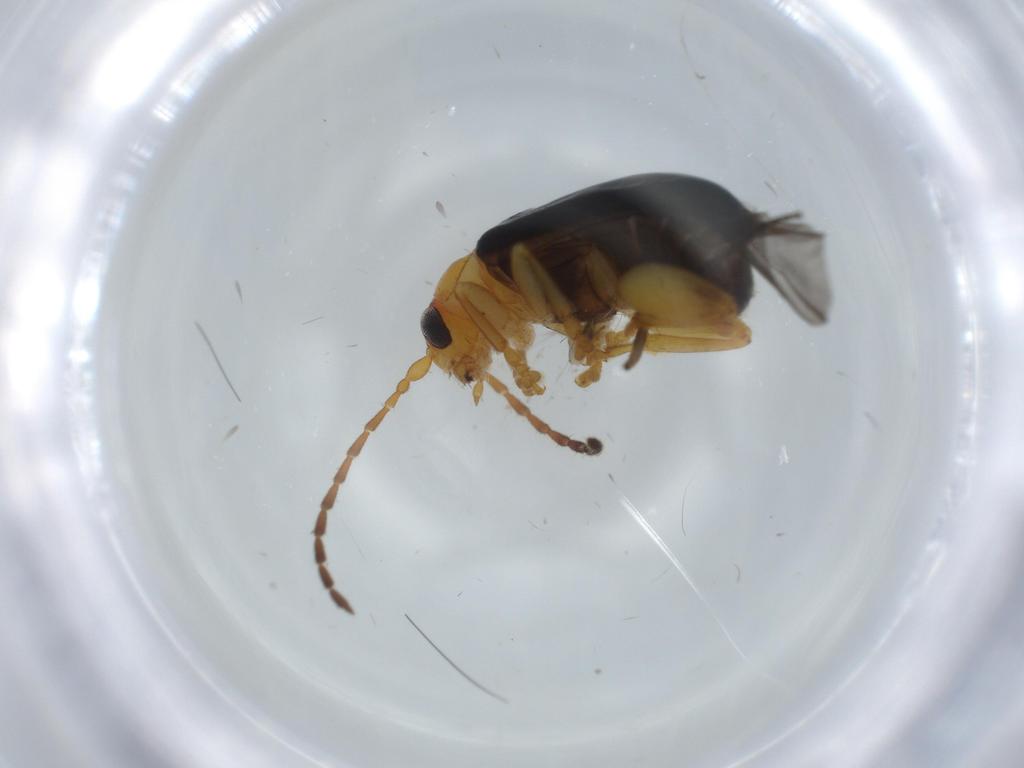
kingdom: Animalia
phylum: Arthropoda
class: Insecta
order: Coleoptera
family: Chrysomelidae
